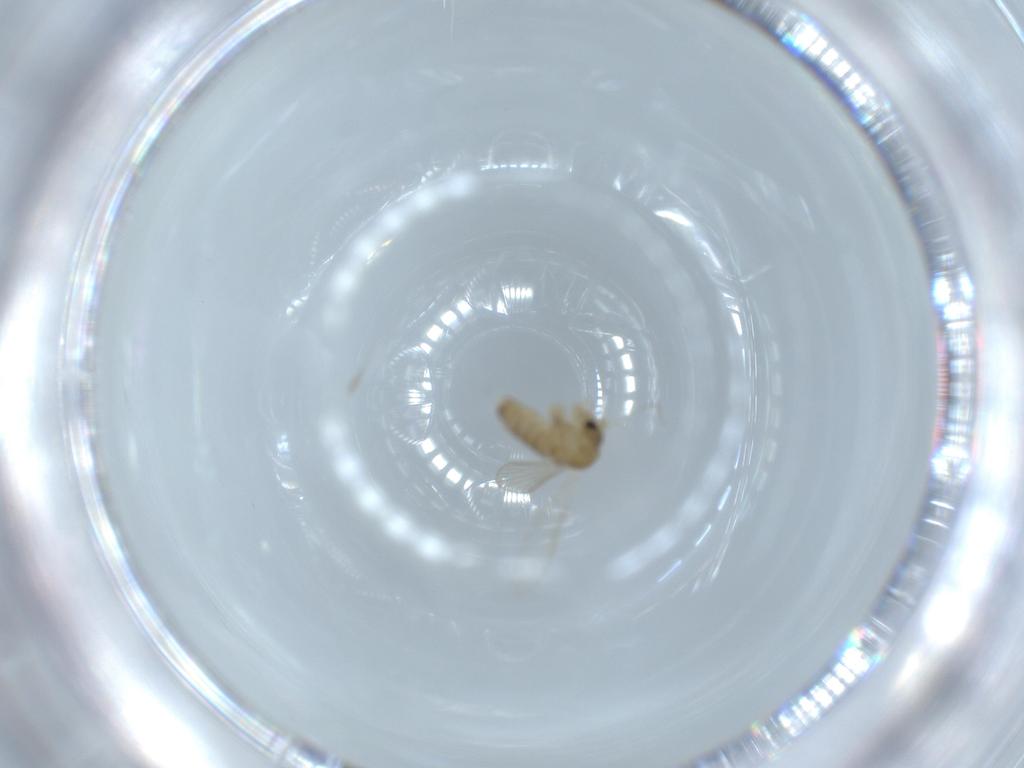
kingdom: Animalia
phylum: Arthropoda
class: Insecta
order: Diptera
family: Psychodidae
